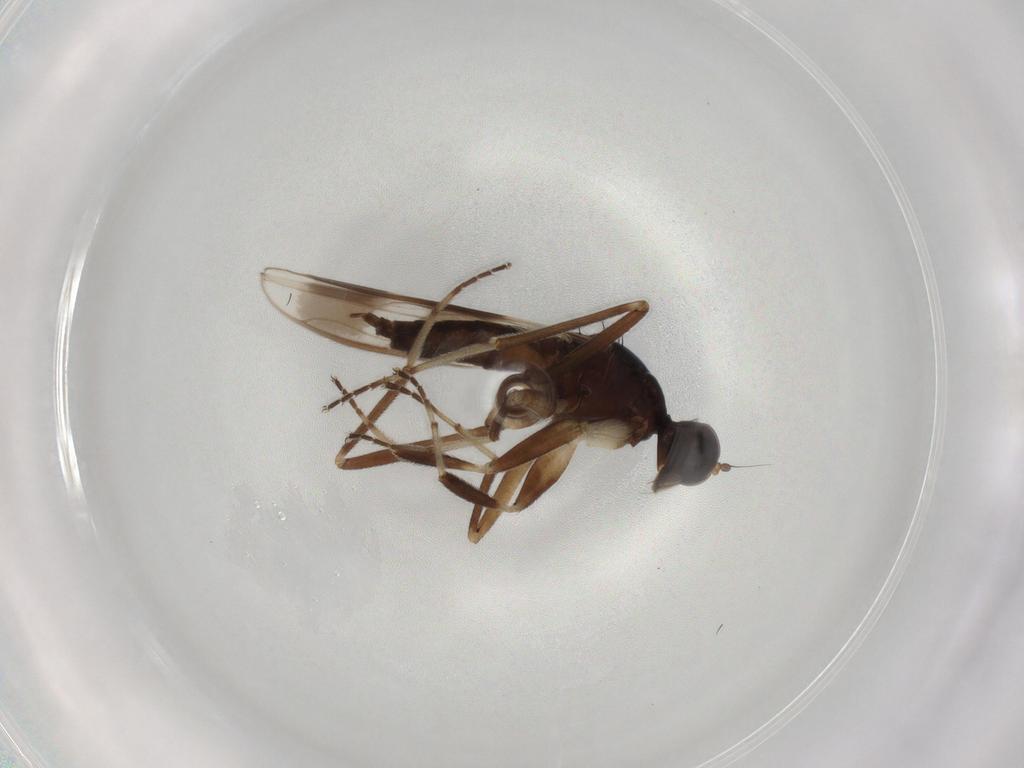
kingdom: Animalia
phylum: Arthropoda
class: Insecta
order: Diptera
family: Hybotidae
